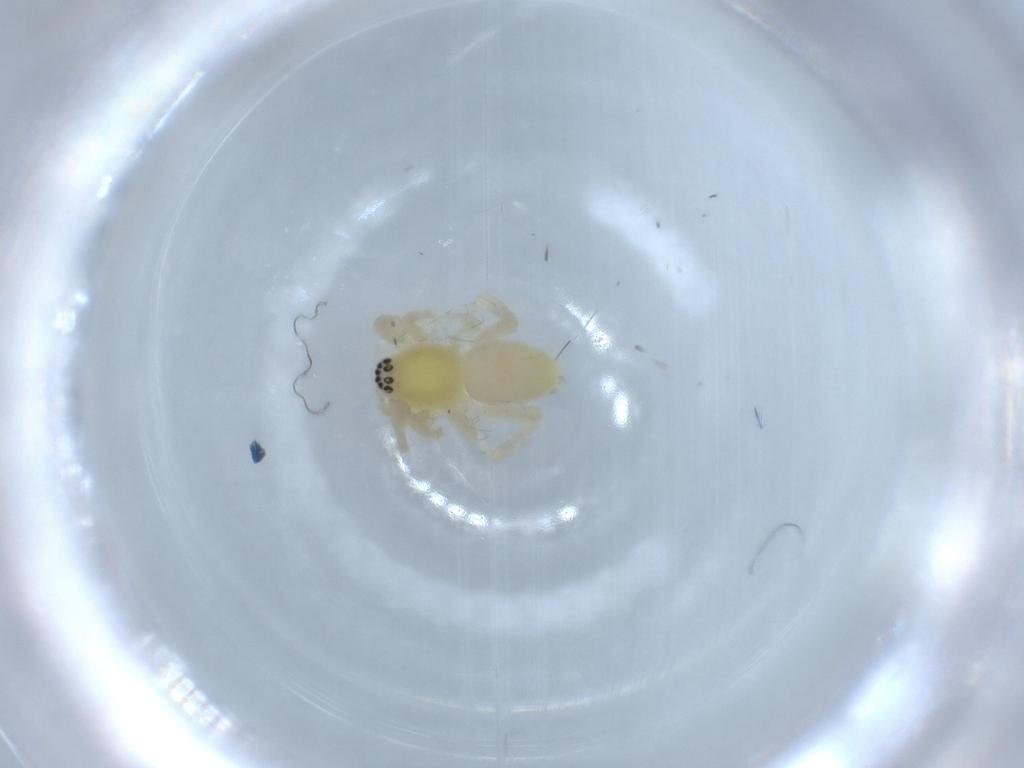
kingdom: Animalia
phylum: Arthropoda
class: Arachnida
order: Araneae
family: Anyphaenidae
